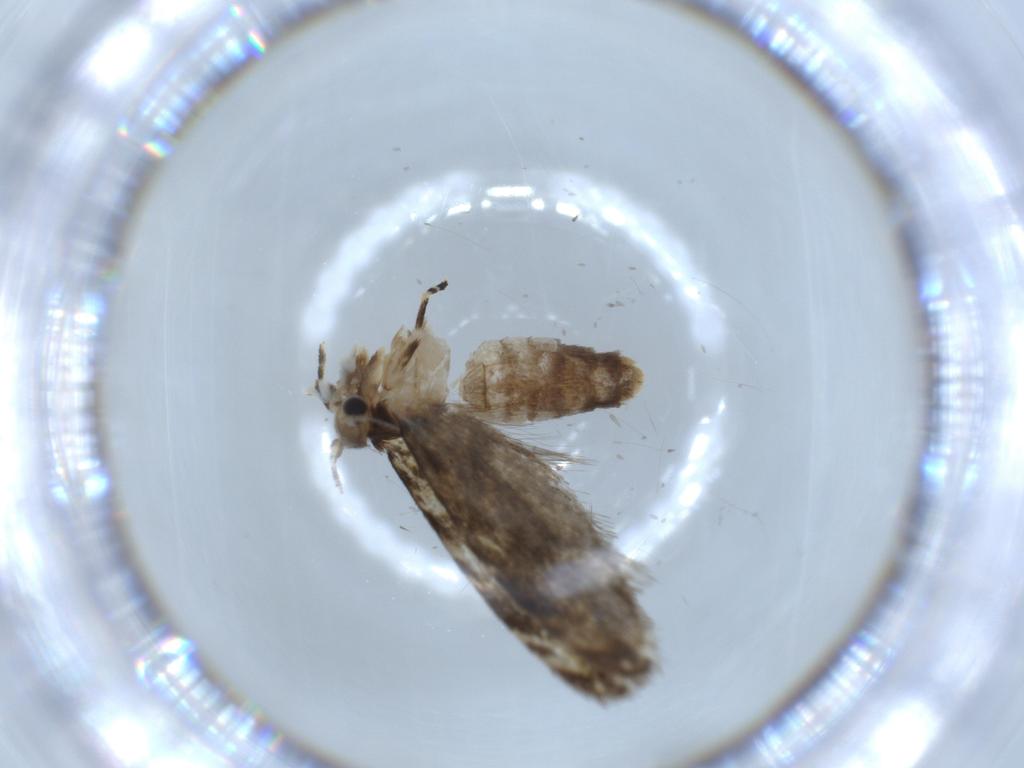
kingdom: Animalia
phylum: Arthropoda
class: Insecta
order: Lepidoptera
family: Tineidae
